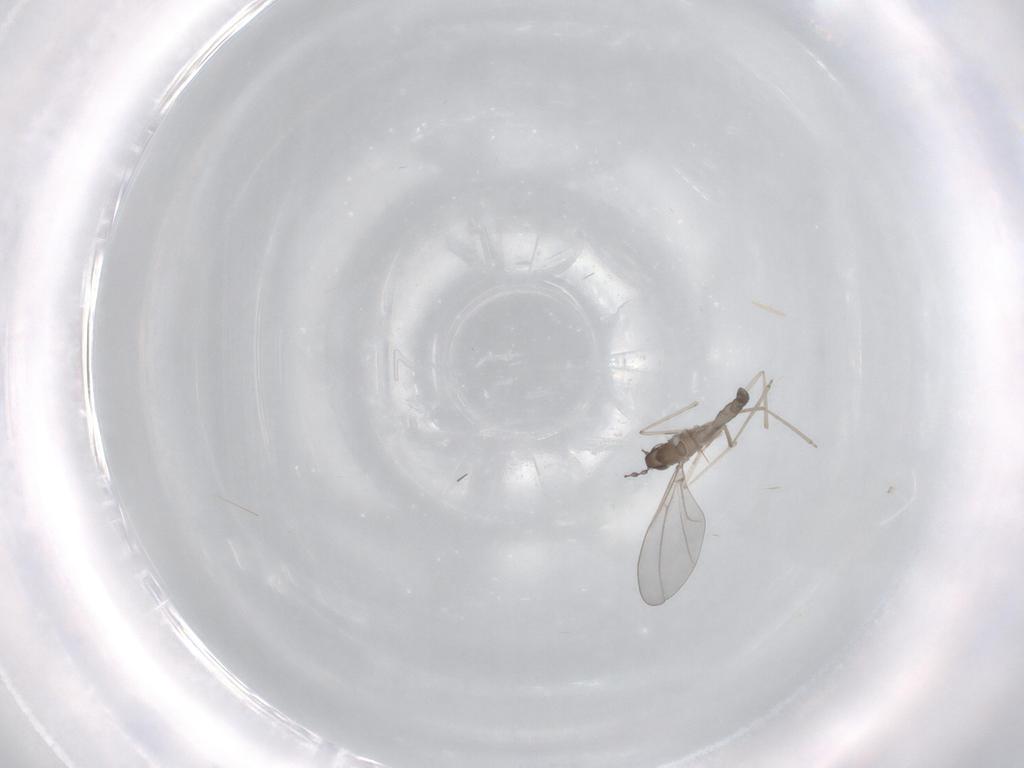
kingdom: Animalia
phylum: Arthropoda
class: Insecta
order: Diptera
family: Cecidomyiidae
